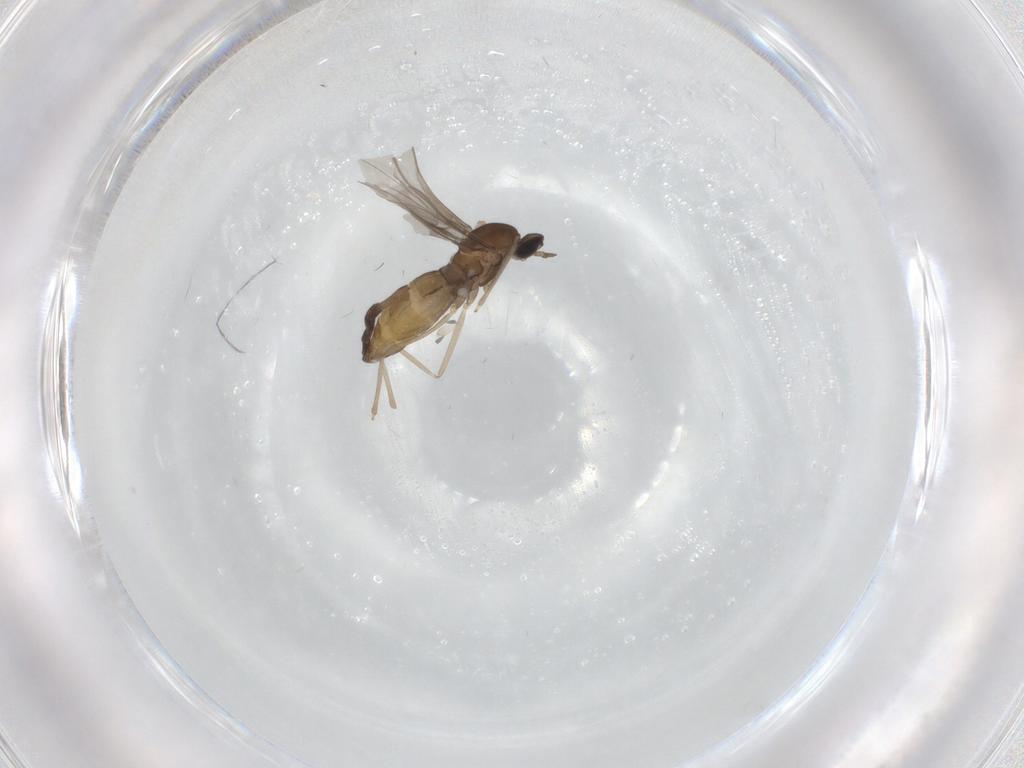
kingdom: Animalia
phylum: Arthropoda
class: Insecta
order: Diptera
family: Cecidomyiidae
